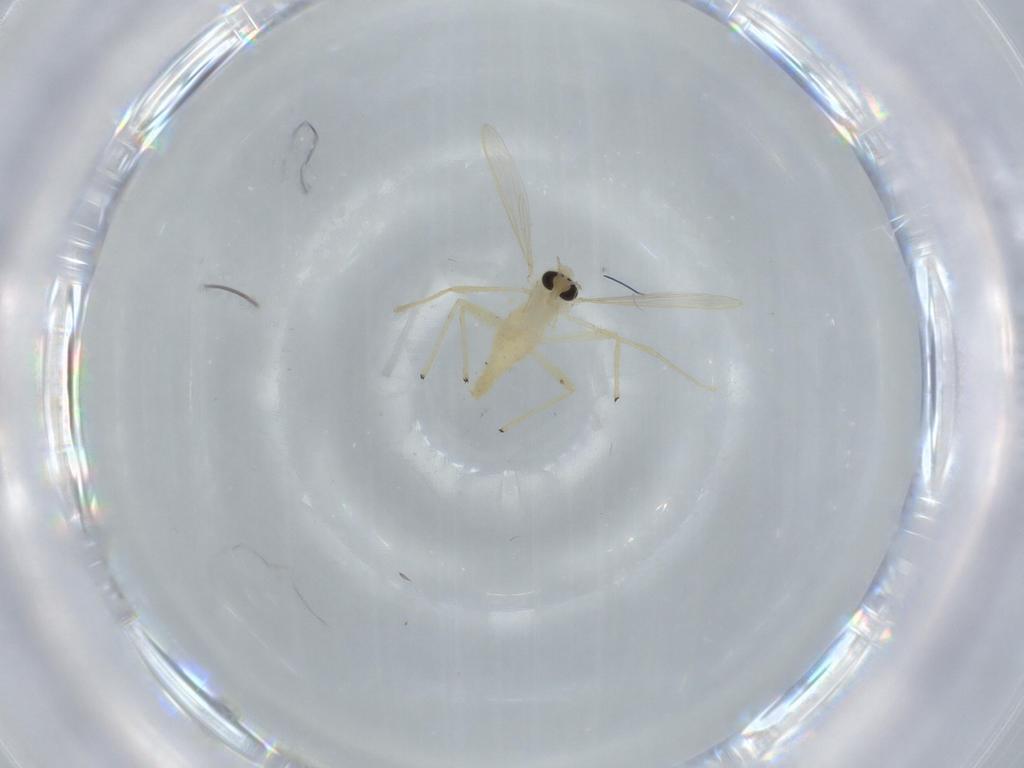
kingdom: Animalia
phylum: Arthropoda
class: Insecta
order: Diptera
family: Chironomidae
